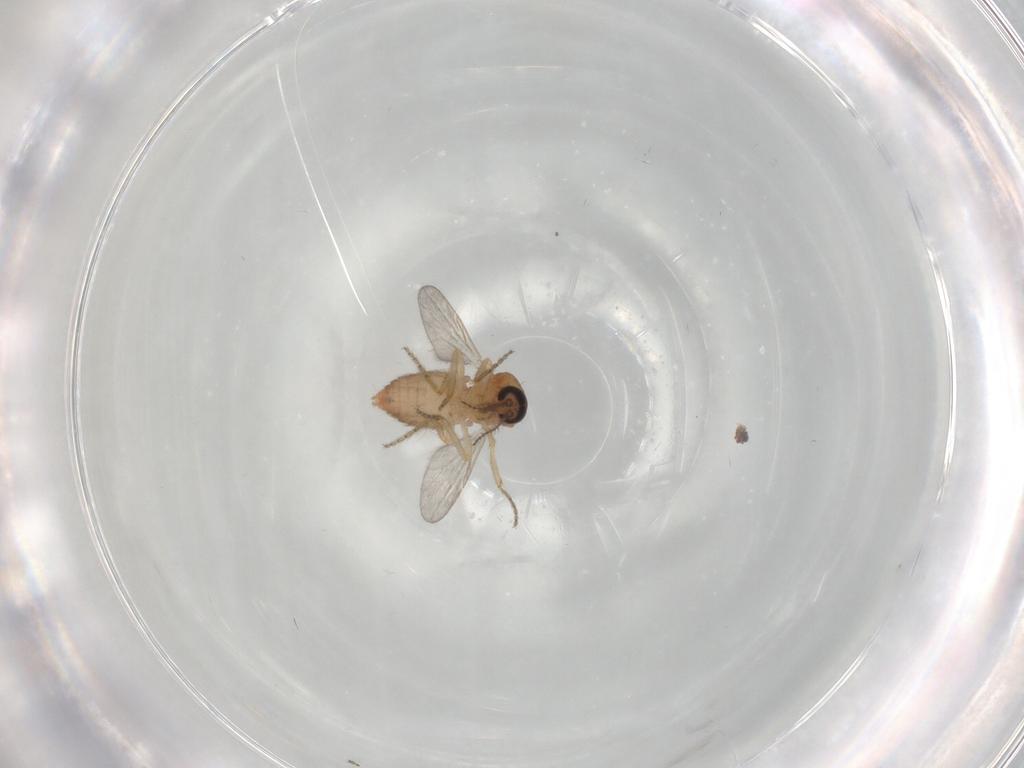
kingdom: Animalia
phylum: Arthropoda
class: Insecta
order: Diptera
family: Ceratopogonidae
